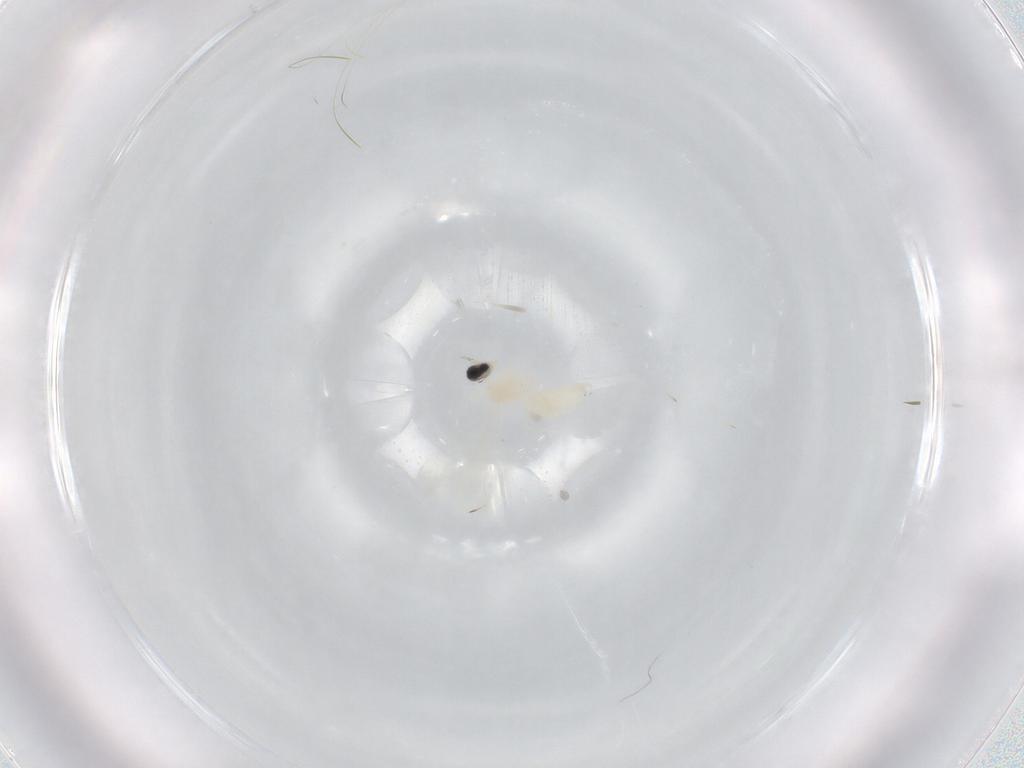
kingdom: Animalia
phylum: Arthropoda
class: Insecta
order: Diptera
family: Cecidomyiidae
